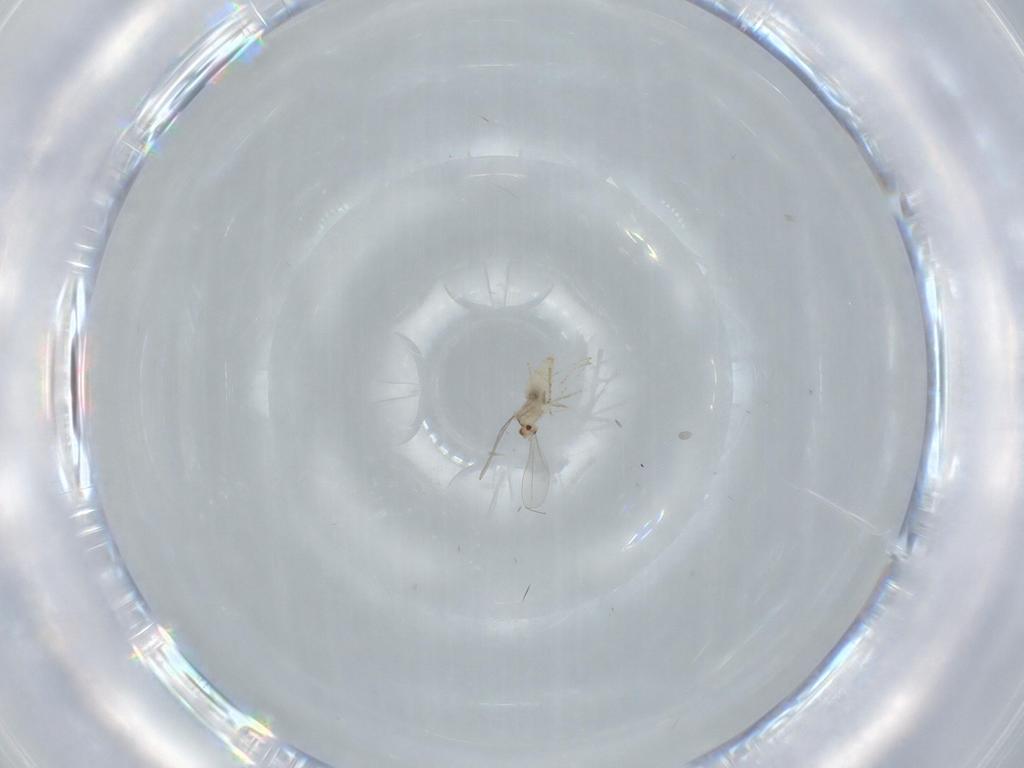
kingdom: Animalia
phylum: Arthropoda
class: Insecta
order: Diptera
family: Cecidomyiidae
